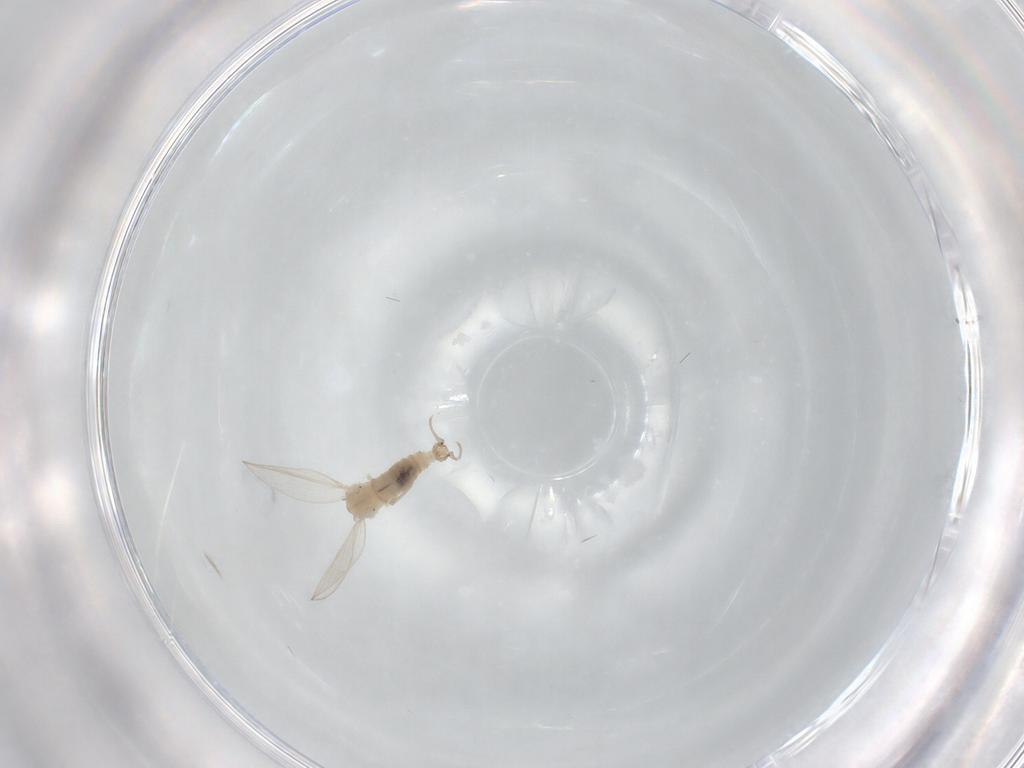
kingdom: Animalia
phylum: Arthropoda
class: Insecta
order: Diptera
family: Psychodidae
